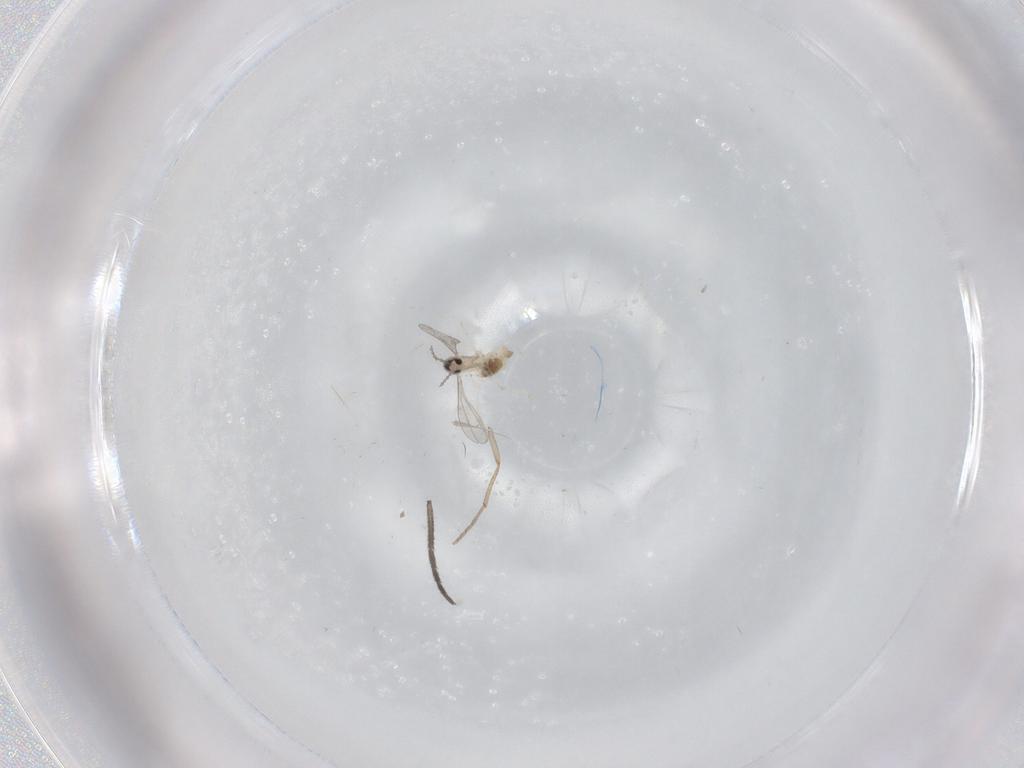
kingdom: Animalia
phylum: Arthropoda
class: Insecta
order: Diptera
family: Cecidomyiidae
